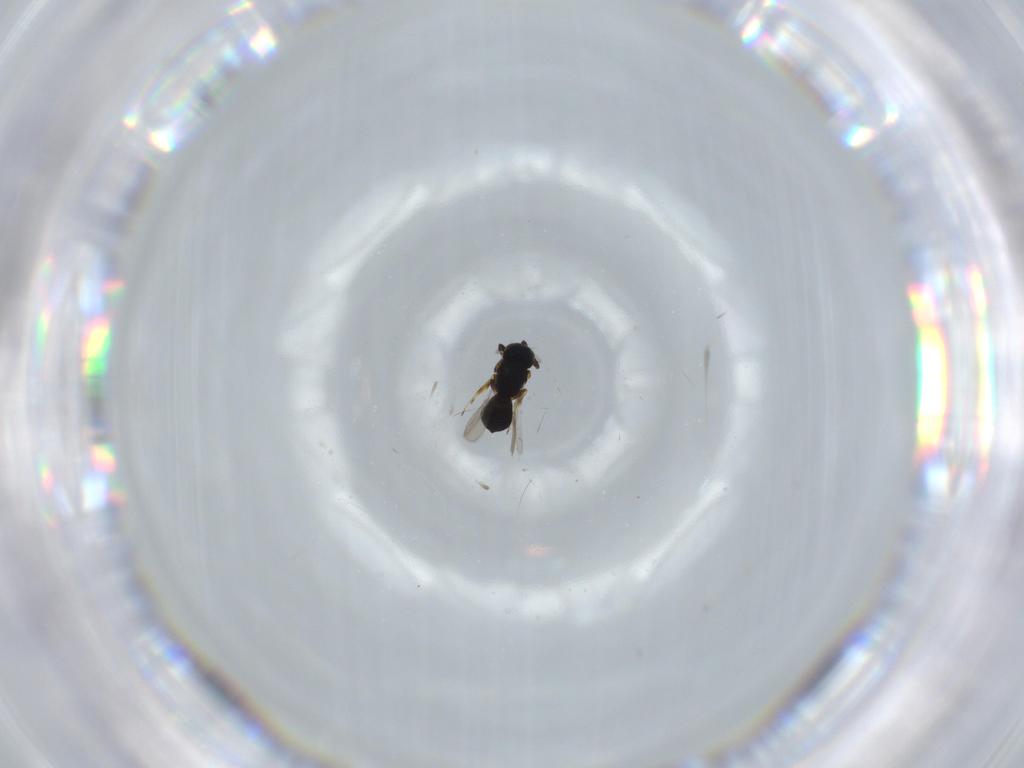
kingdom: Animalia
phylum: Arthropoda
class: Insecta
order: Hymenoptera
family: Scelionidae
